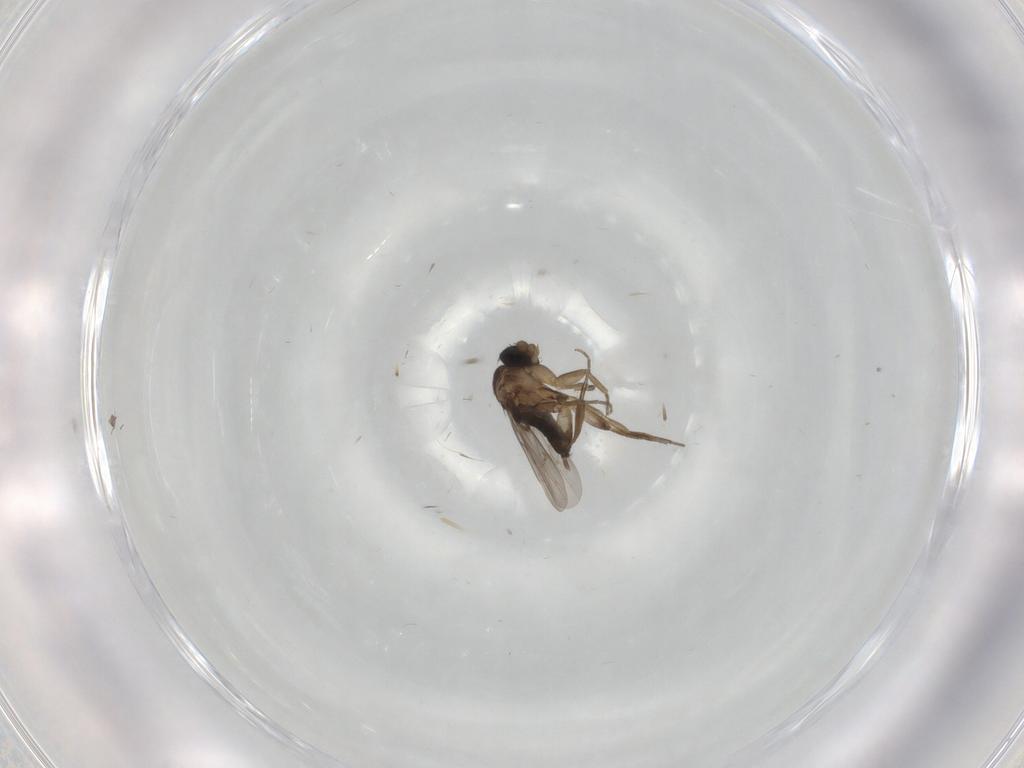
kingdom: Animalia
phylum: Arthropoda
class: Insecta
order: Diptera
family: Phoridae
